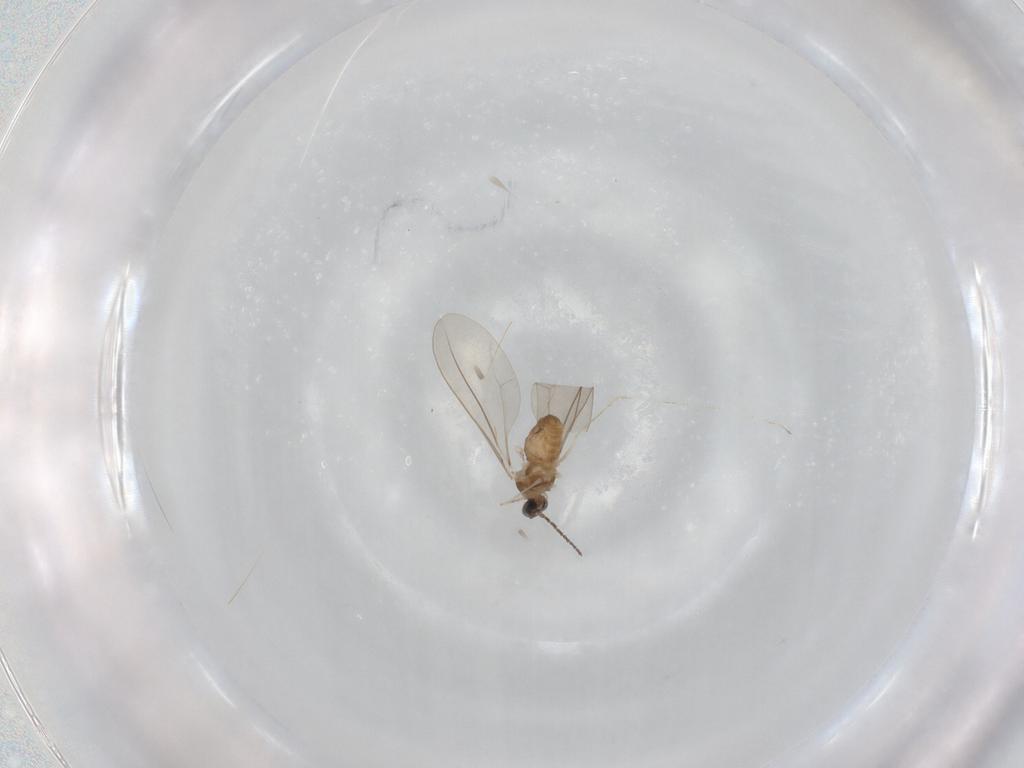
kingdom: Animalia
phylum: Arthropoda
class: Insecta
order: Diptera
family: Cecidomyiidae
